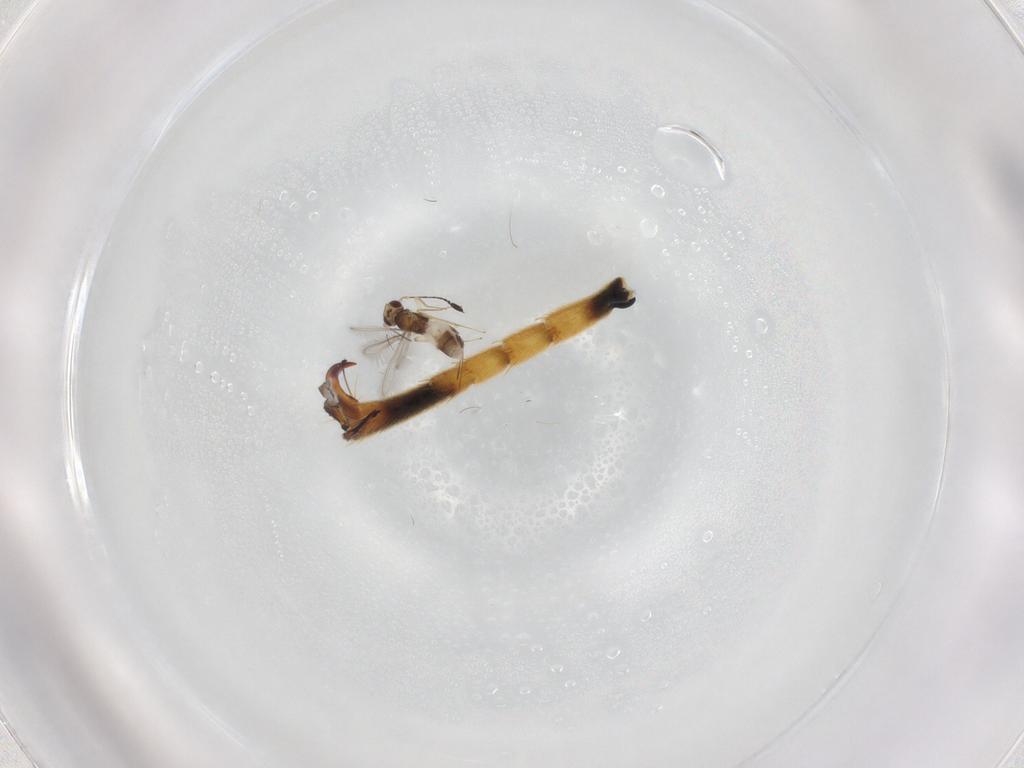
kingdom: Animalia
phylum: Arthropoda
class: Insecta
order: Hymenoptera
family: Ichneumonidae
